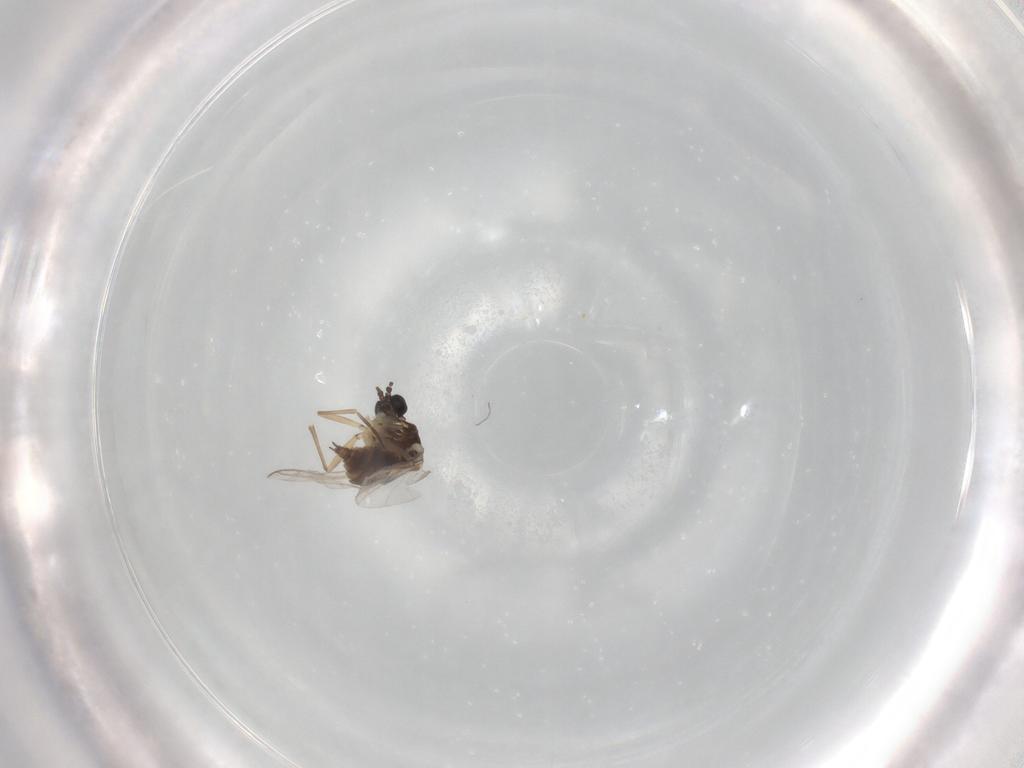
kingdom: Animalia
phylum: Arthropoda
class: Insecta
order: Diptera
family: Sciaridae
